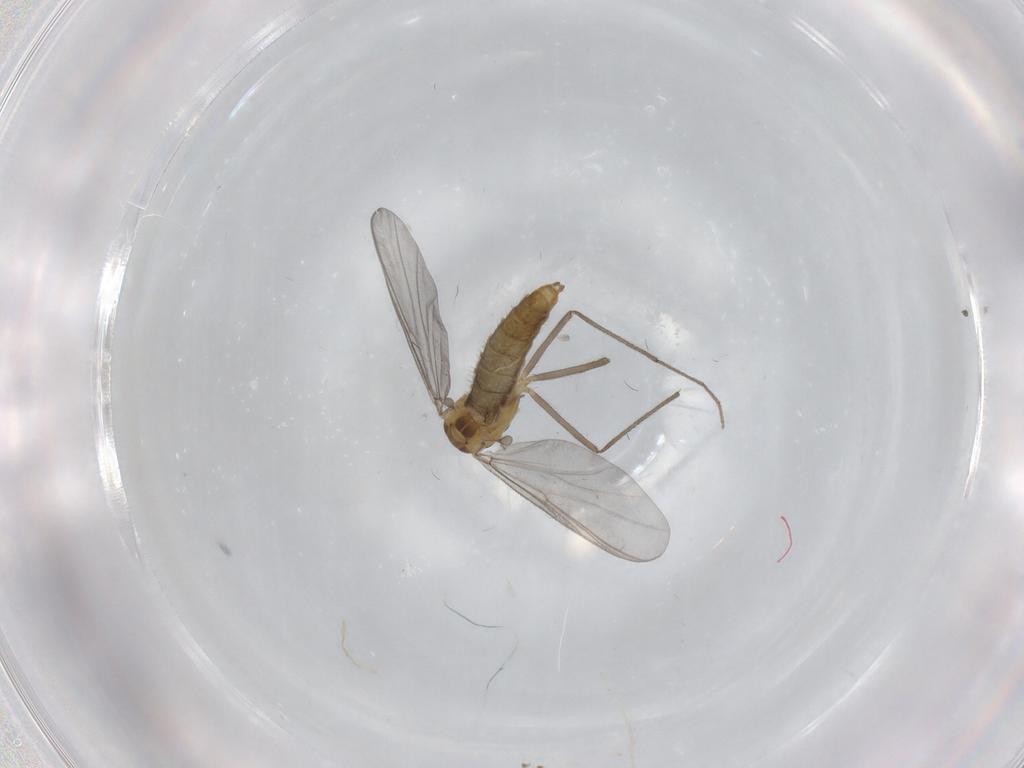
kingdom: Animalia
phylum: Arthropoda
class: Insecta
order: Diptera
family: Chironomidae
